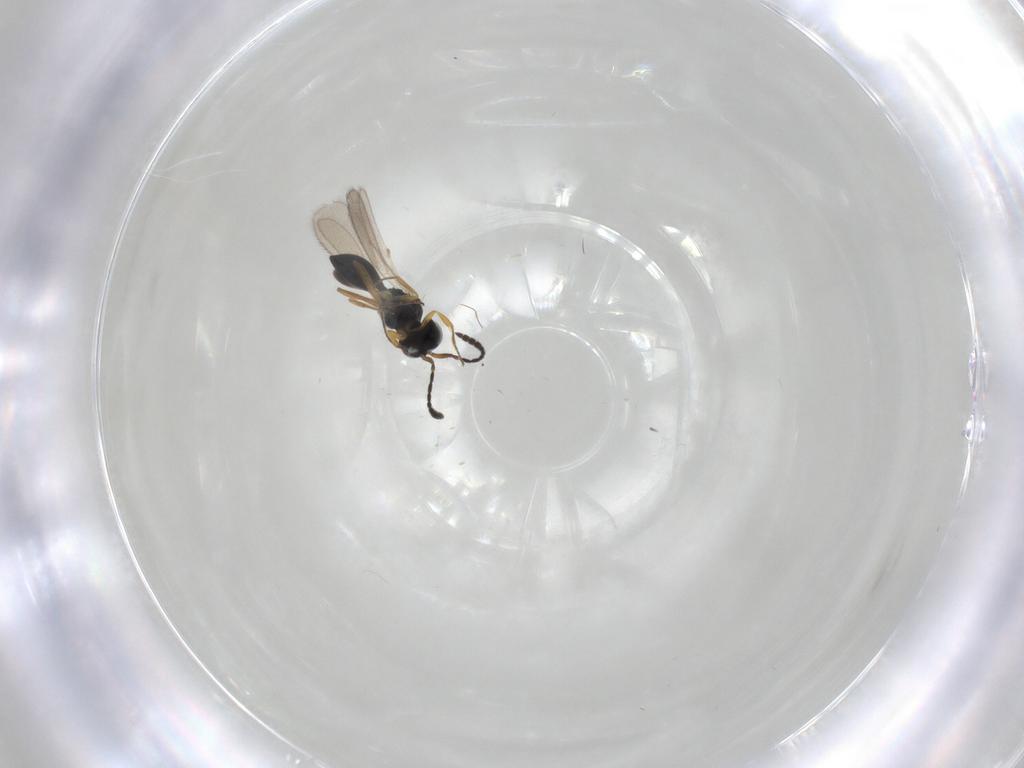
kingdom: Animalia
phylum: Arthropoda
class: Insecta
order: Hymenoptera
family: Scelionidae
